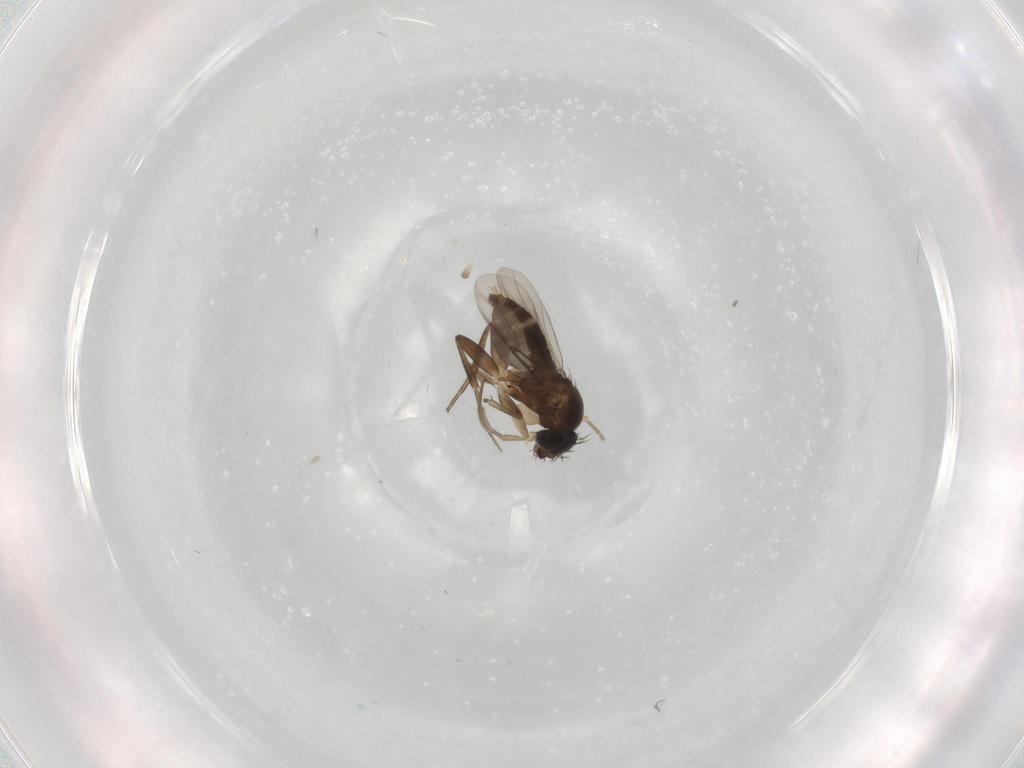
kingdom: Animalia
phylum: Arthropoda
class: Insecta
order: Diptera
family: Phoridae
